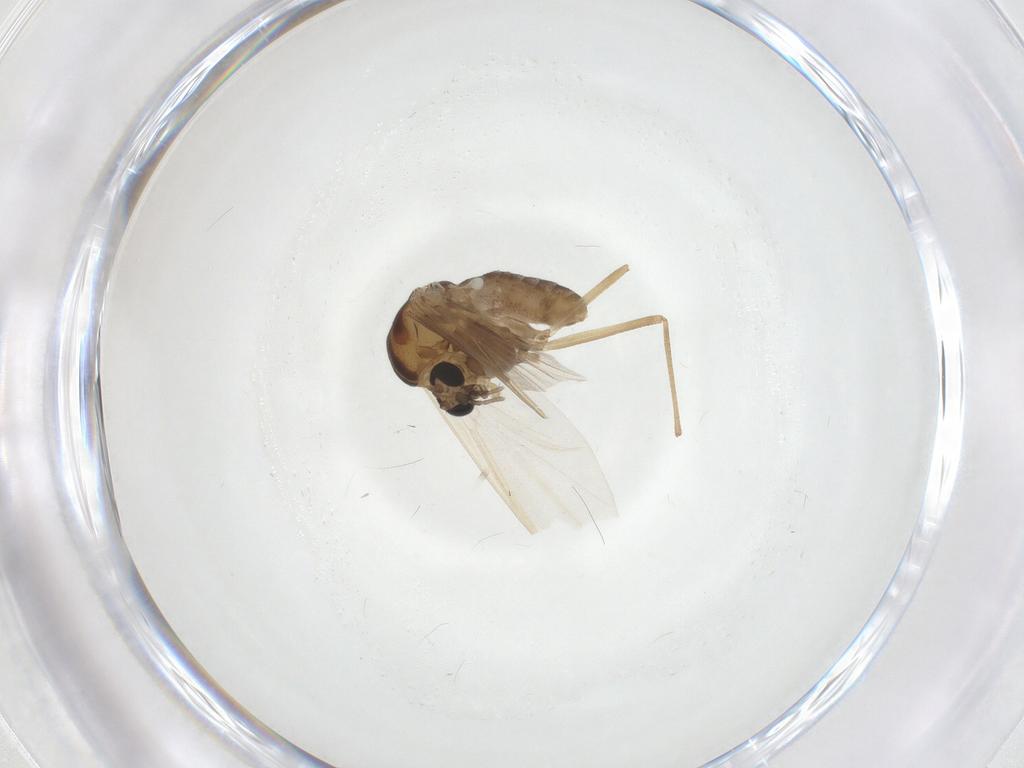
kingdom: Animalia
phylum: Arthropoda
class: Insecta
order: Diptera
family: Chironomidae
